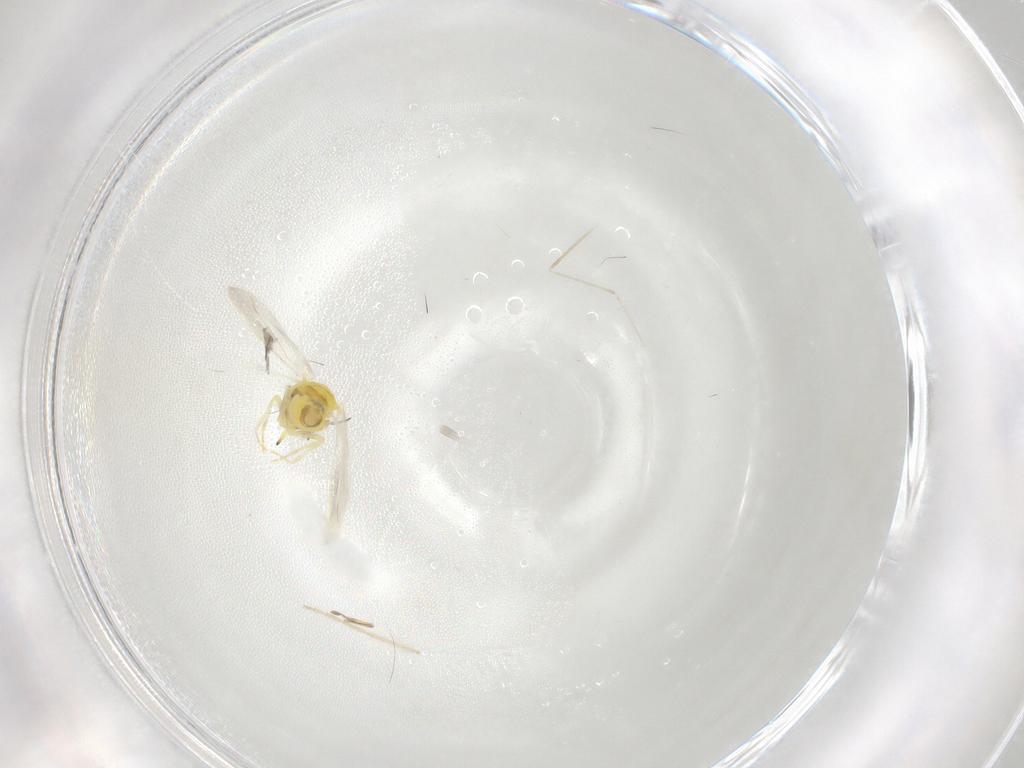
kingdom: Animalia
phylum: Arthropoda
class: Insecta
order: Hemiptera
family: Aleyrodidae
